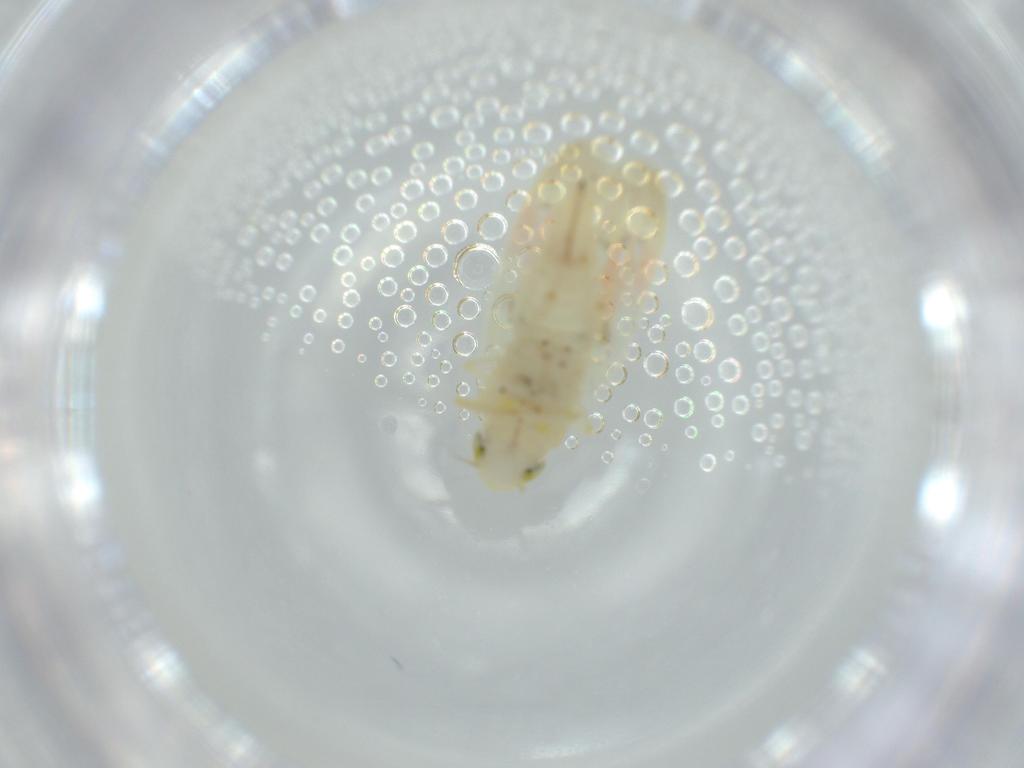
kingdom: Animalia
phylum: Arthropoda
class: Insecta
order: Hemiptera
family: Cicadellidae
